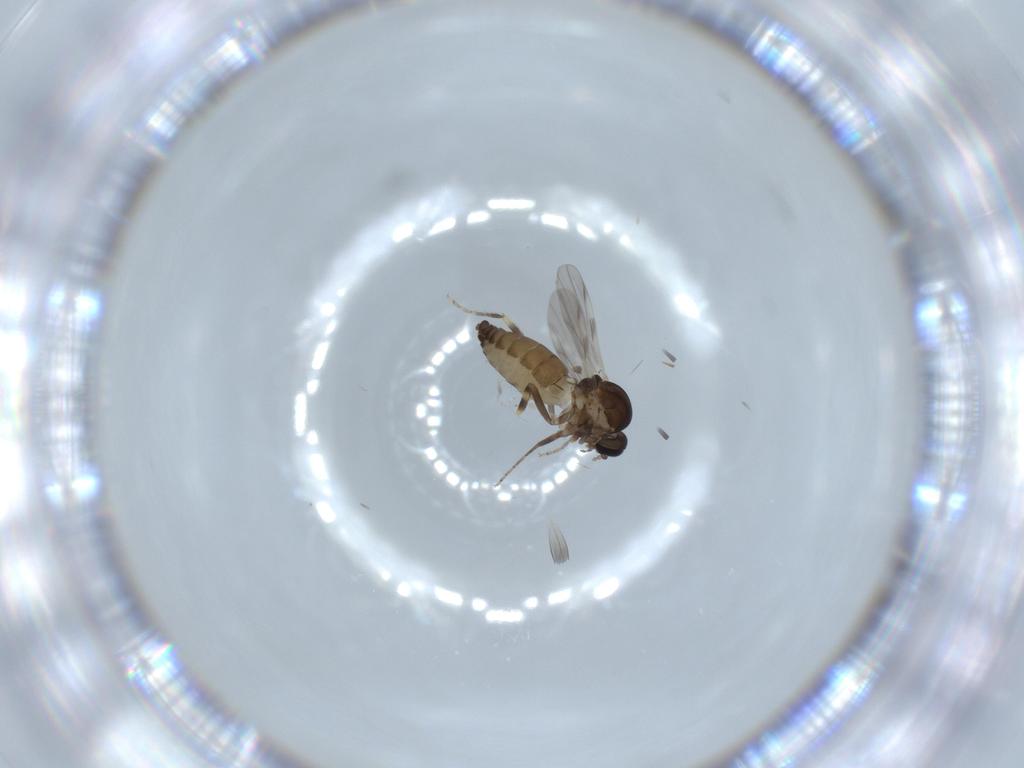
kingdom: Animalia
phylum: Arthropoda
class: Insecta
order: Diptera
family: Ceratopogonidae
